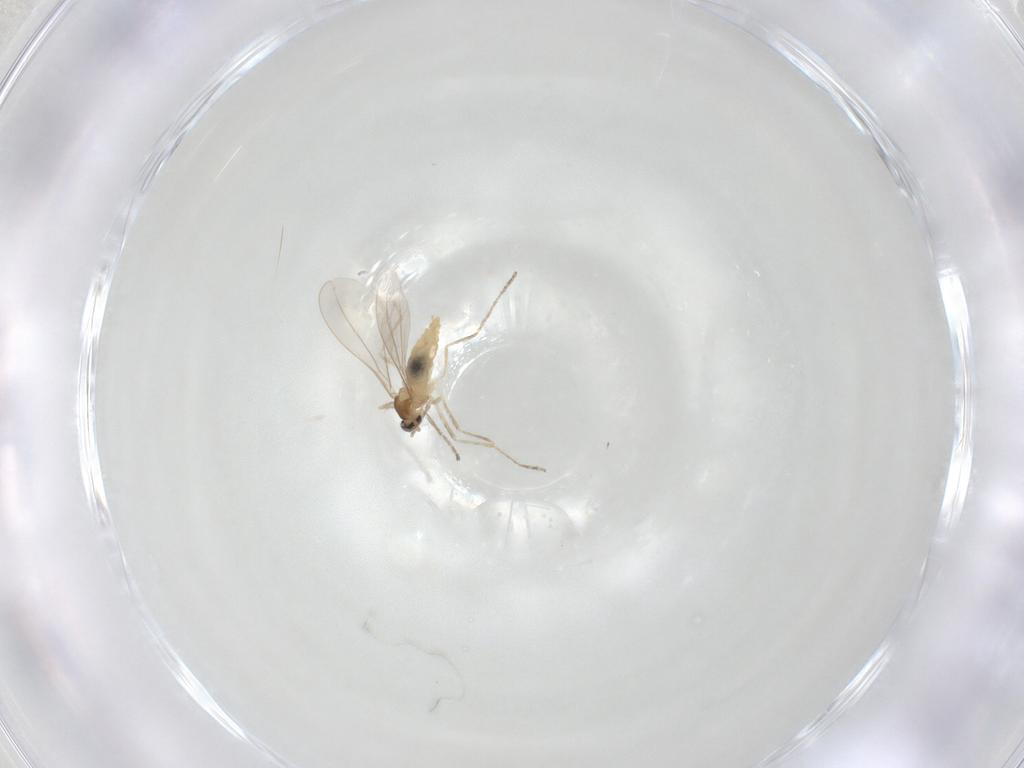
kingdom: Animalia
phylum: Arthropoda
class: Insecta
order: Diptera
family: Cecidomyiidae
